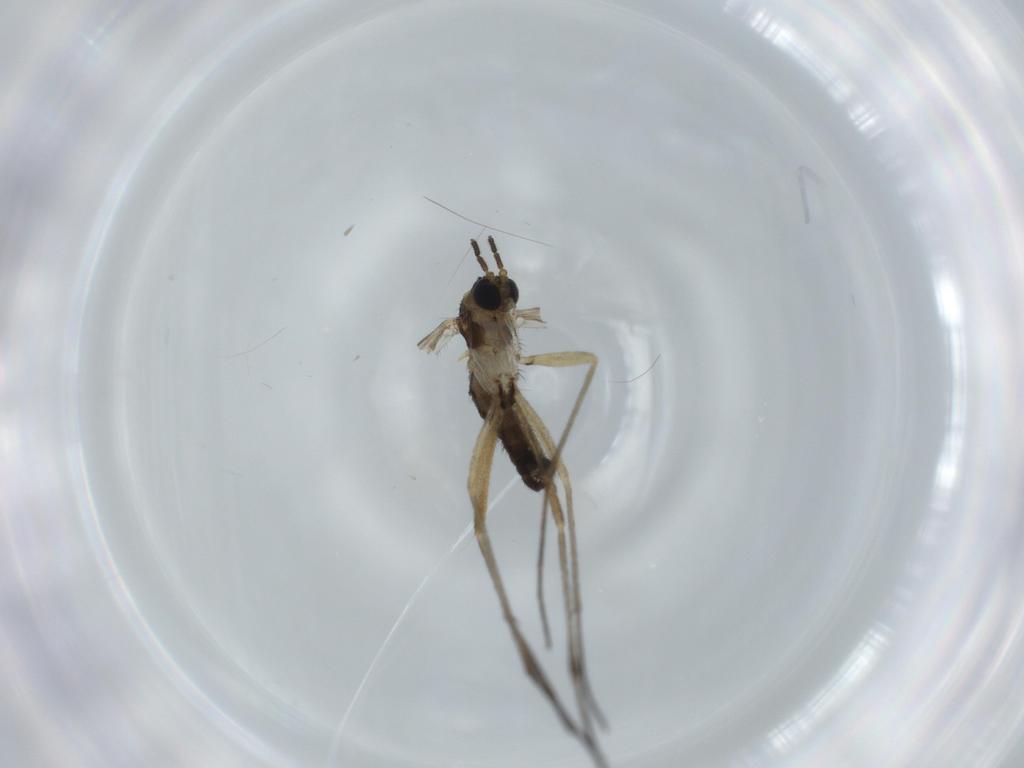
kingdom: Animalia
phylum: Arthropoda
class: Insecta
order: Diptera
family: Sciaridae
